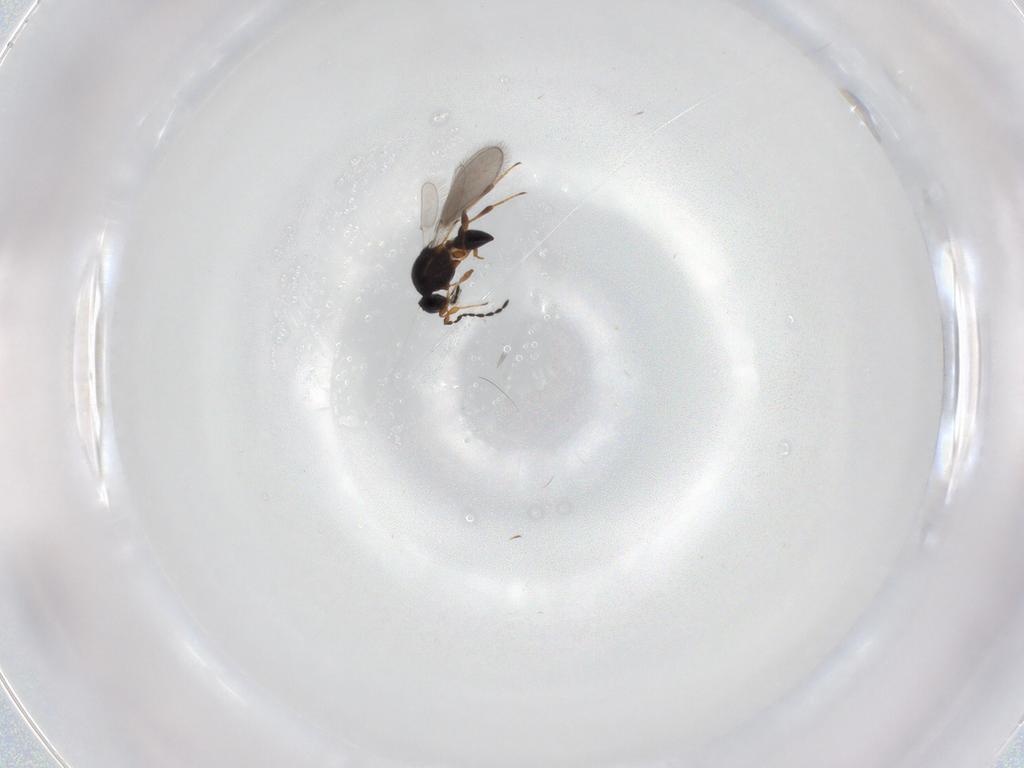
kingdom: Animalia
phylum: Arthropoda
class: Insecta
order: Hymenoptera
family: Platygastridae
